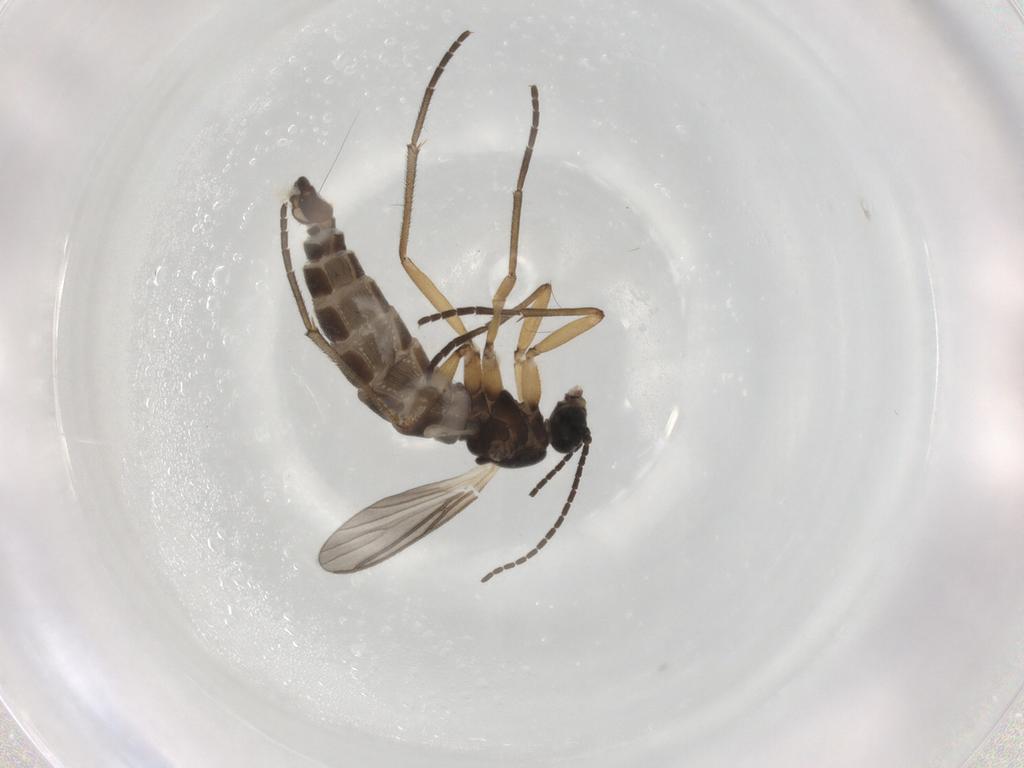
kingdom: Animalia
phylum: Arthropoda
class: Insecta
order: Diptera
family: Sciaridae
